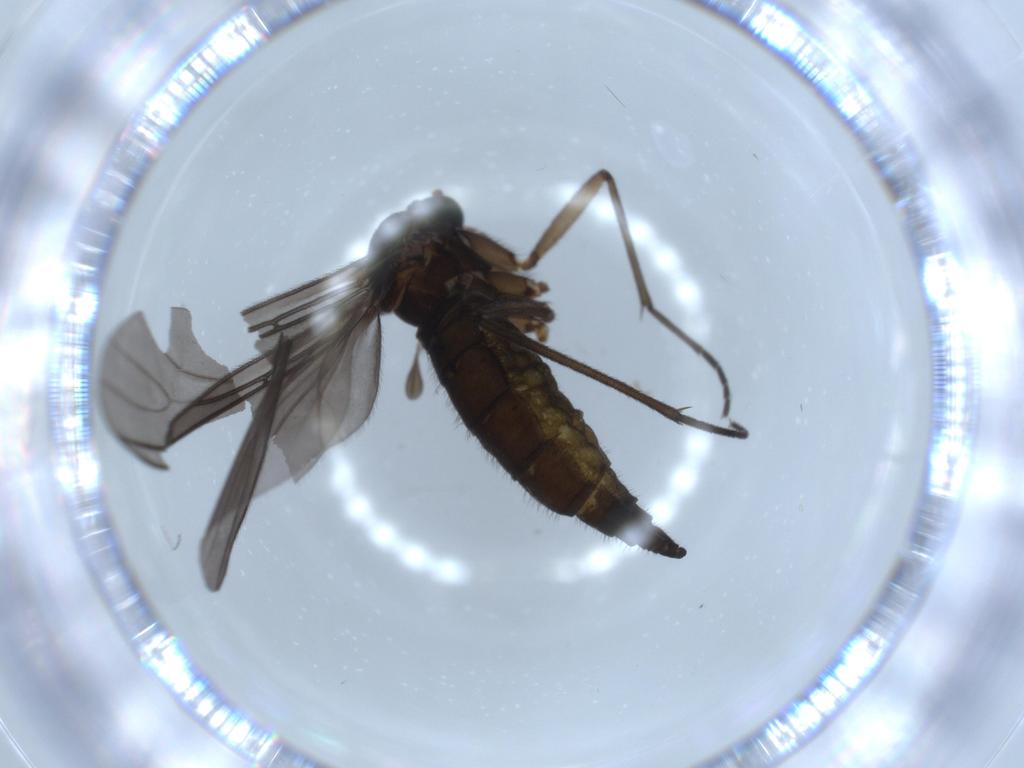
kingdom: Animalia
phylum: Arthropoda
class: Insecta
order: Diptera
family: Sciaridae
